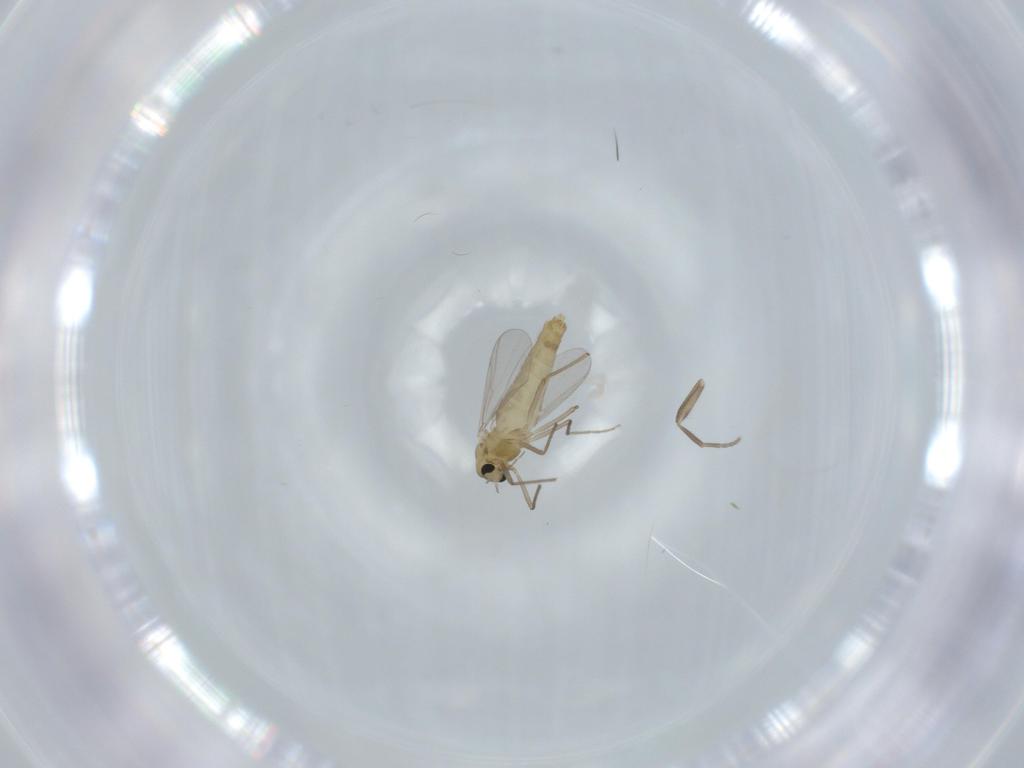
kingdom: Animalia
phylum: Arthropoda
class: Insecta
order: Diptera
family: Chironomidae
